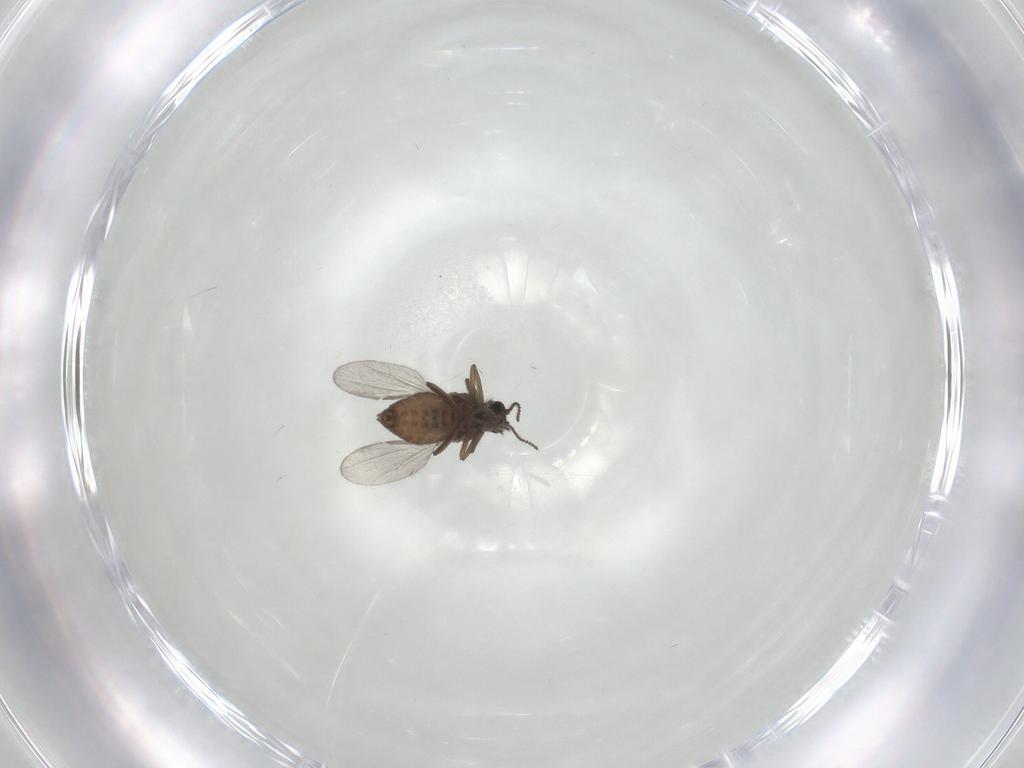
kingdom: Animalia
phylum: Arthropoda
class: Insecta
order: Diptera
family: Ceratopogonidae
